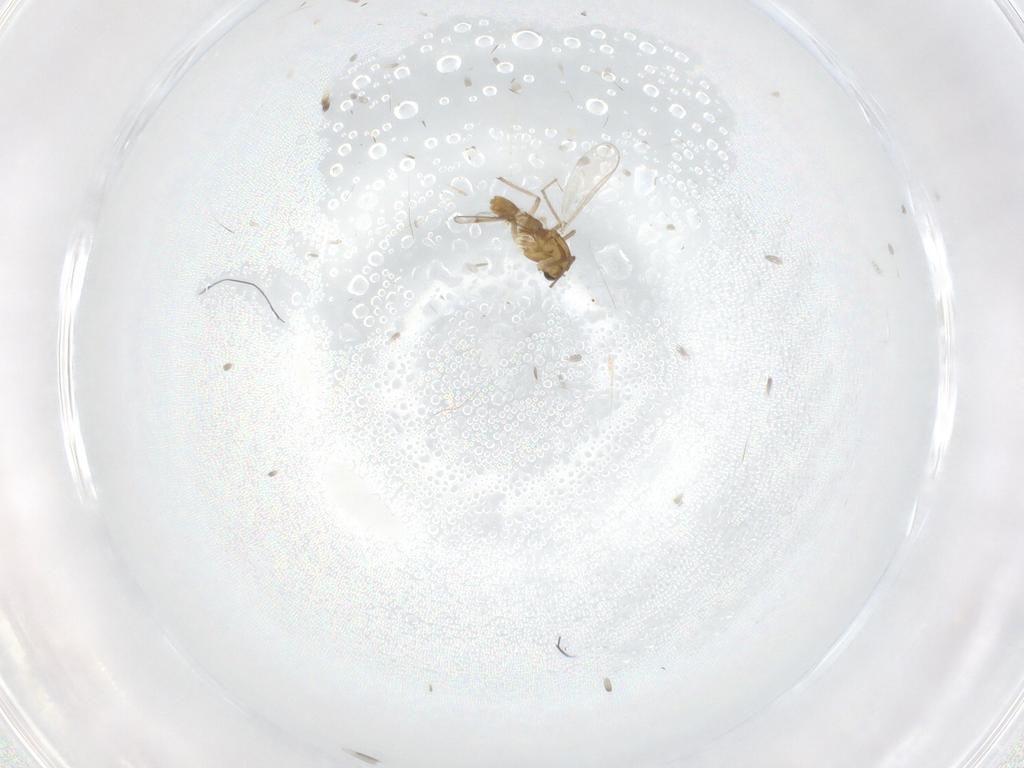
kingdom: Animalia
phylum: Arthropoda
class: Insecta
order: Diptera
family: Chironomidae
